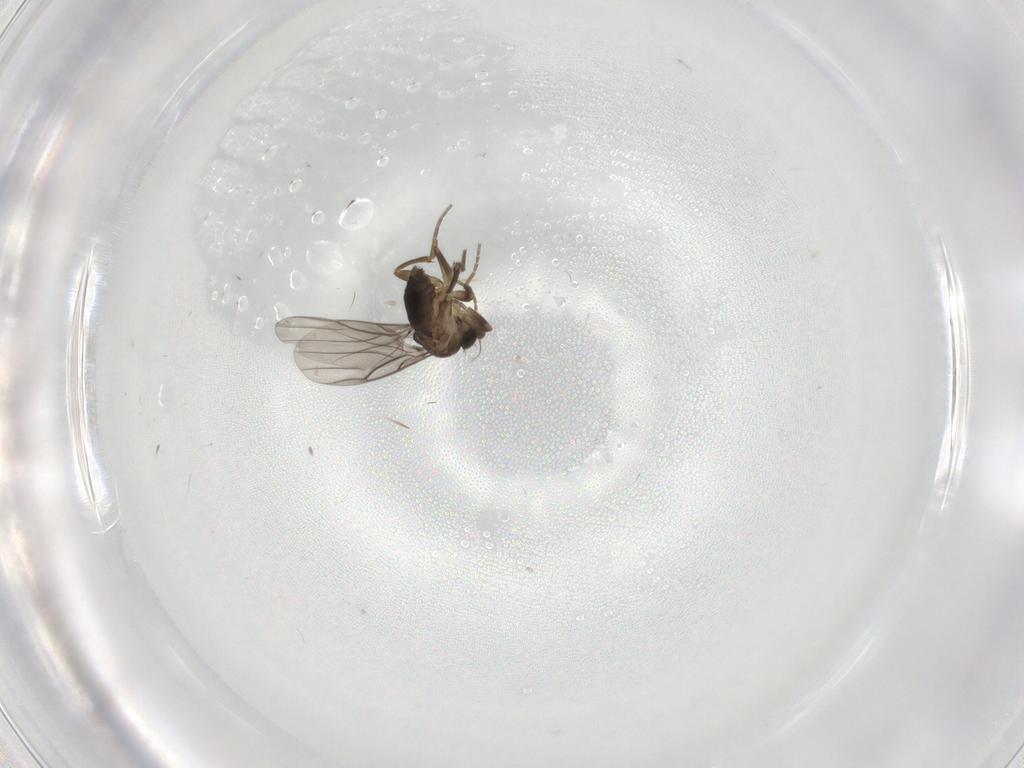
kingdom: Animalia
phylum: Arthropoda
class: Insecta
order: Diptera
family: Phoridae
